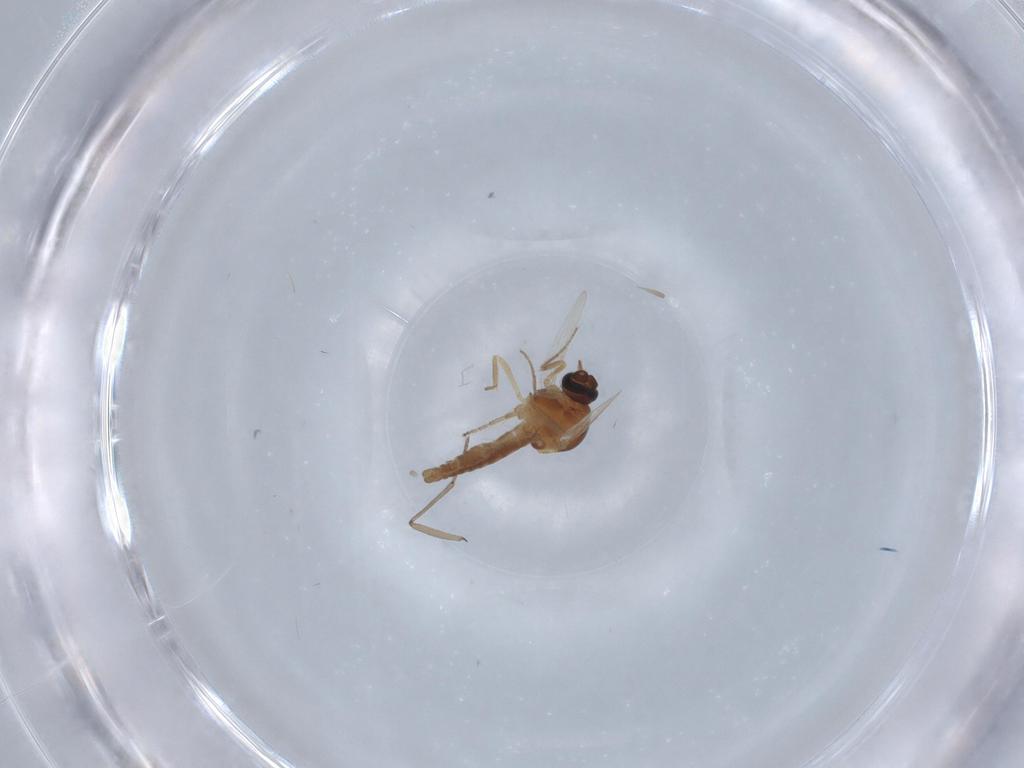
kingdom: Animalia
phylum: Arthropoda
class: Insecta
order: Diptera
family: Ceratopogonidae
